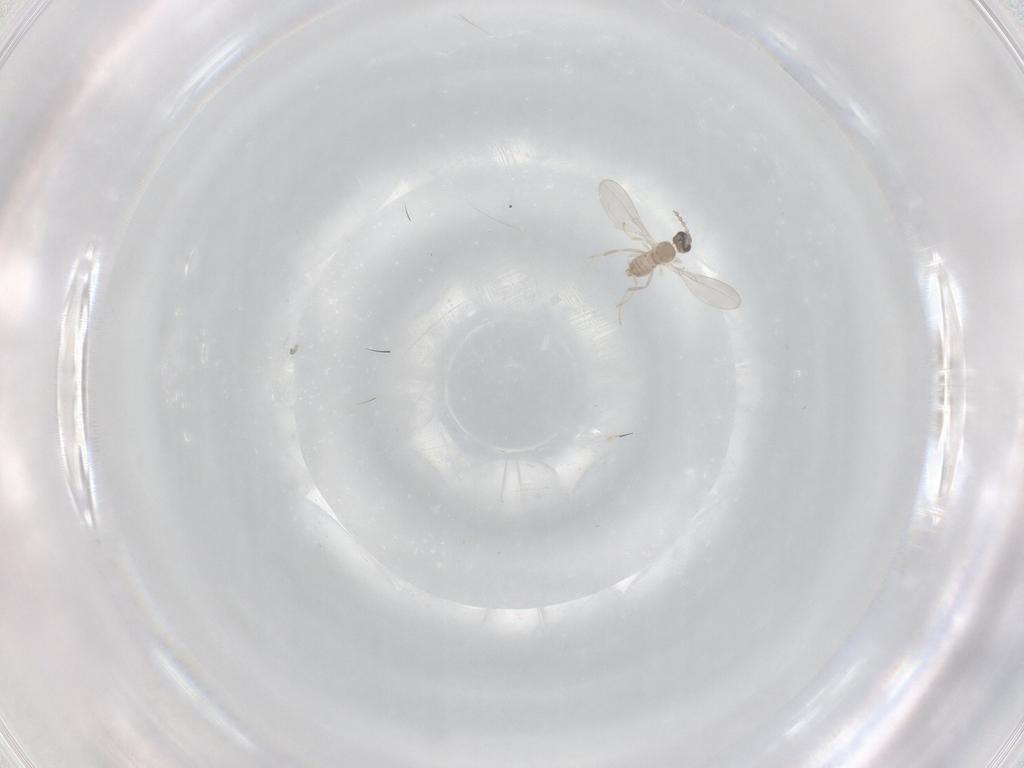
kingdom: Animalia
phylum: Arthropoda
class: Insecta
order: Diptera
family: Cecidomyiidae
